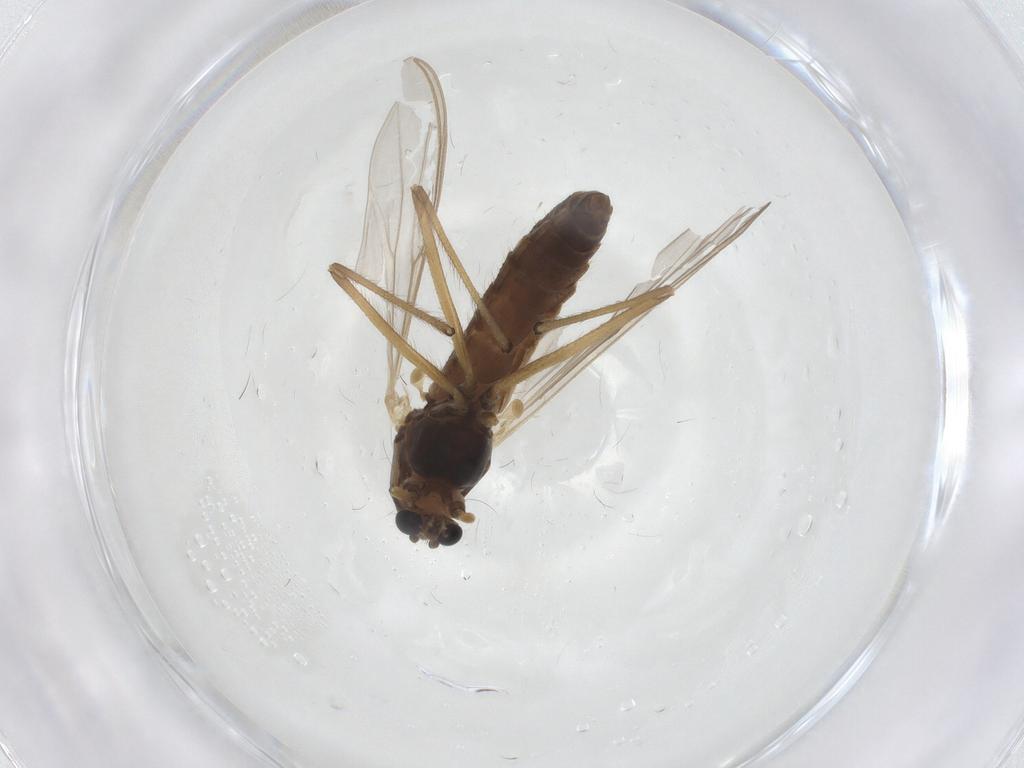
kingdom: Animalia
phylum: Arthropoda
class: Insecta
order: Diptera
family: Chironomidae
